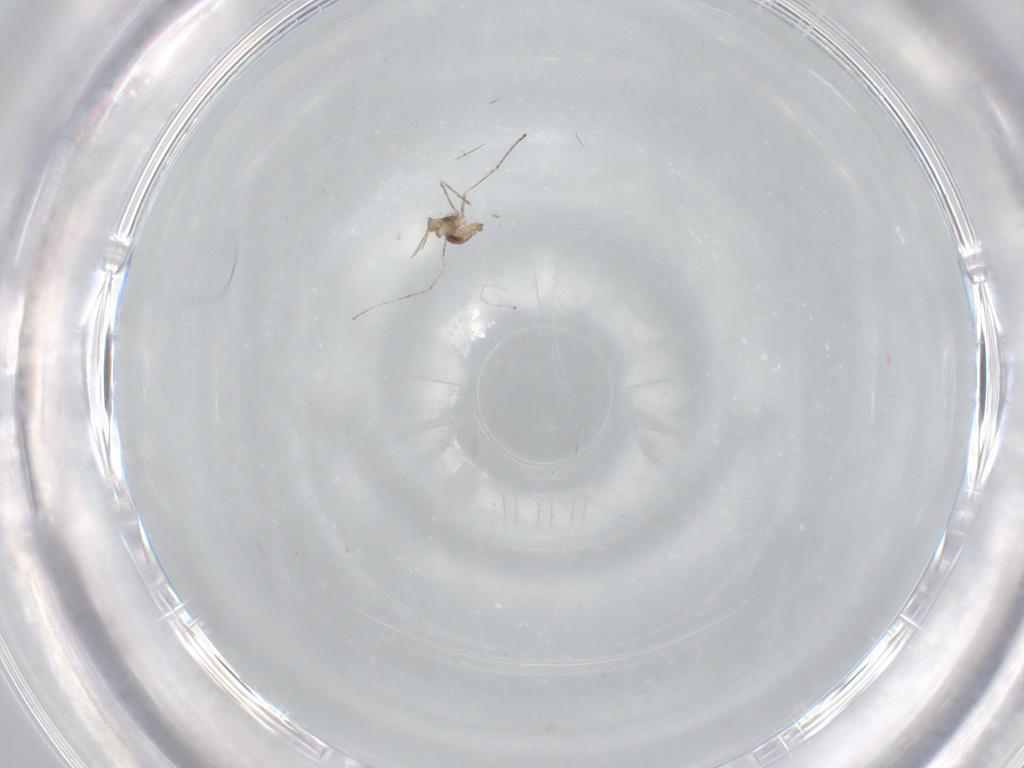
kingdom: Animalia
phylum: Arthropoda
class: Insecta
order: Diptera
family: Cecidomyiidae
